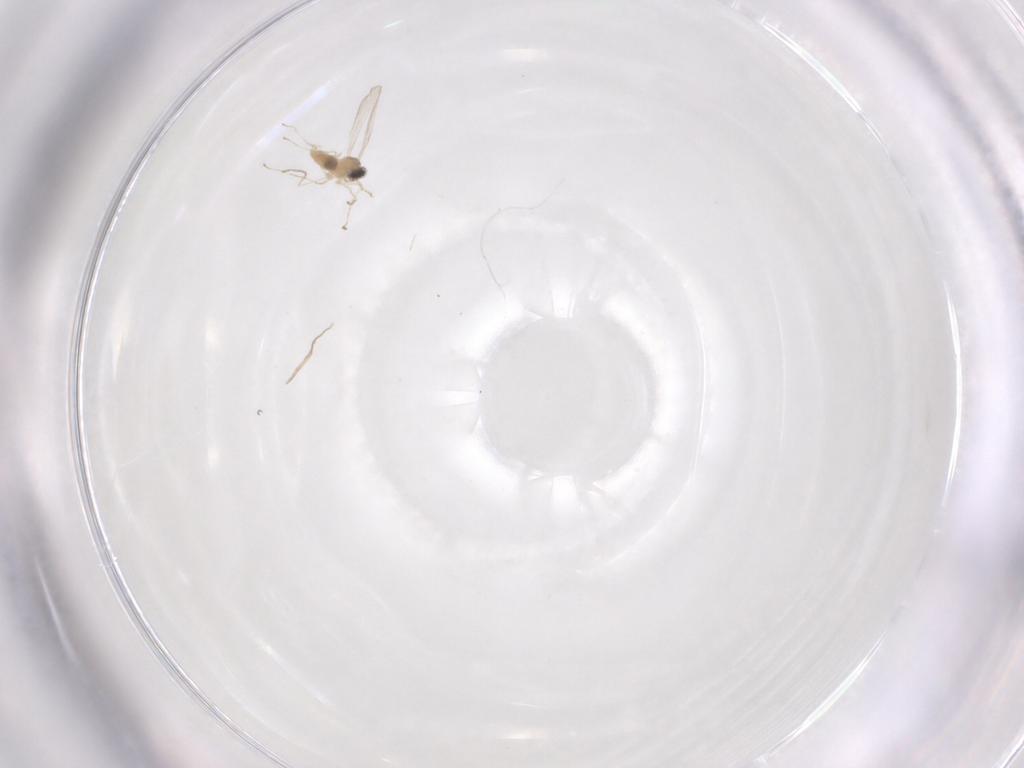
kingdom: Animalia
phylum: Arthropoda
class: Insecta
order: Diptera
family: Cecidomyiidae
